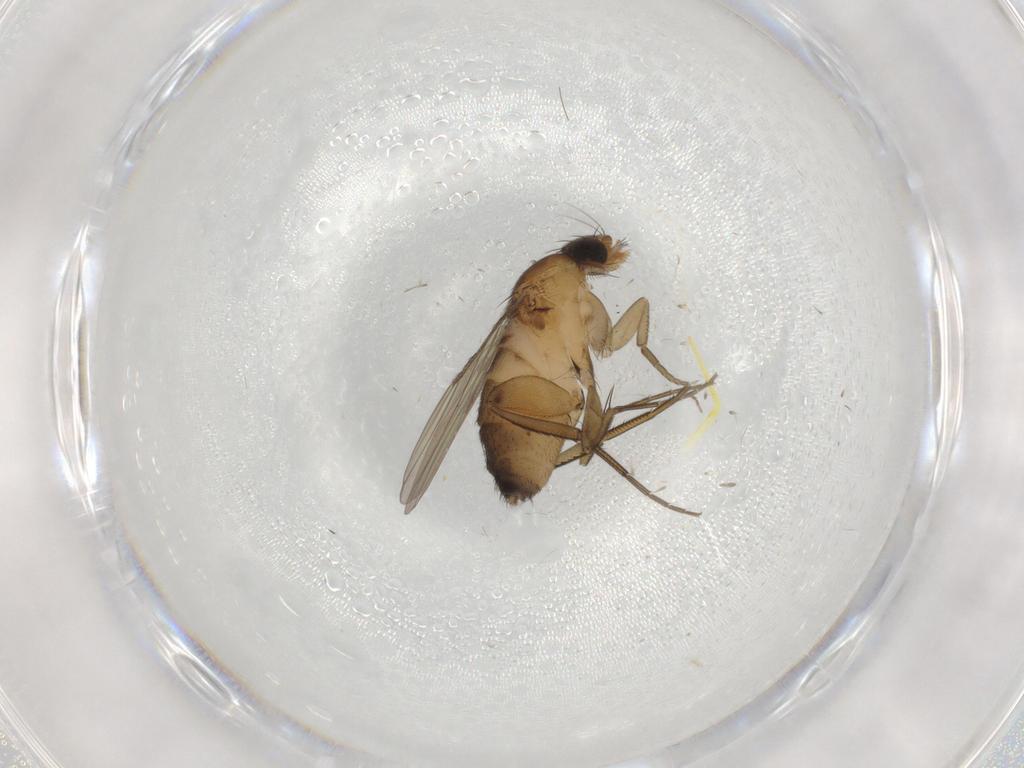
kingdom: Animalia
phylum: Arthropoda
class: Insecta
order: Diptera
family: Phoridae
